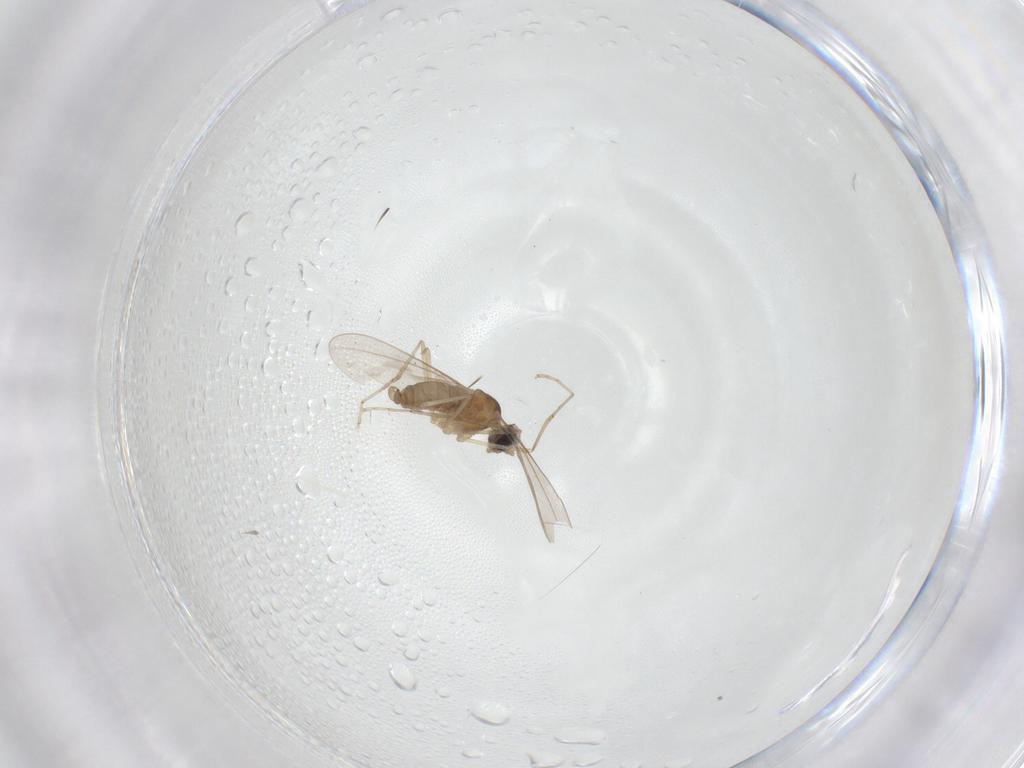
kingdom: Animalia
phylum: Arthropoda
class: Insecta
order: Diptera
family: Cecidomyiidae
